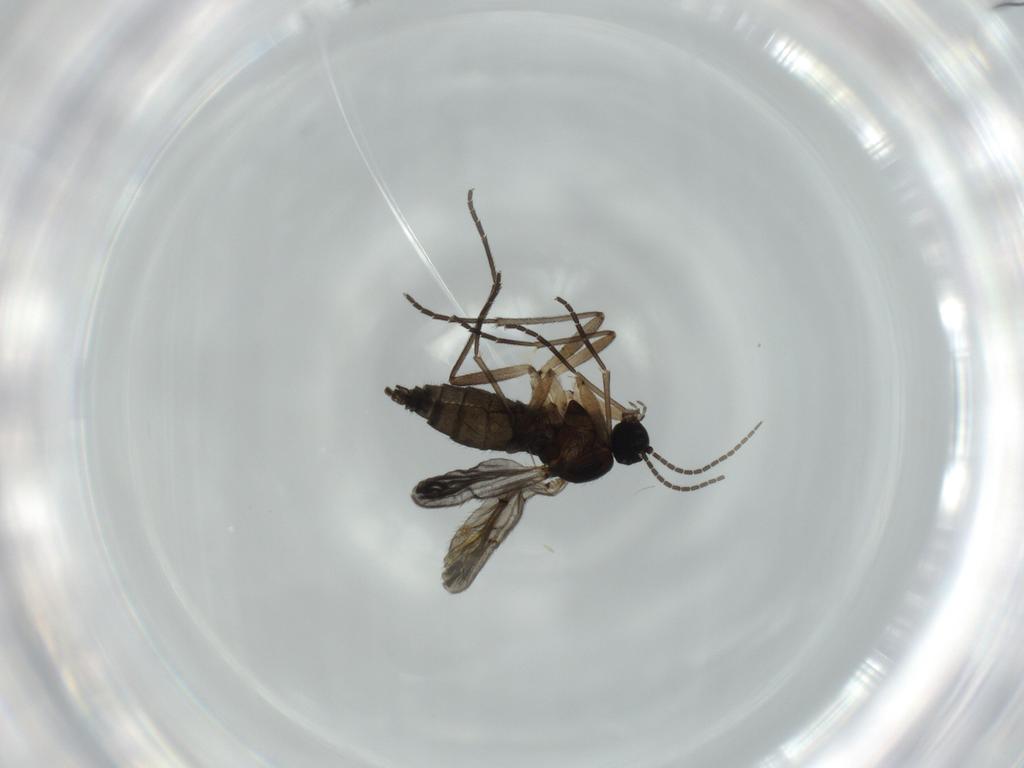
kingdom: Animalia
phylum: Arthropoda
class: Insecta
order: Diptera
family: Sciaridae
